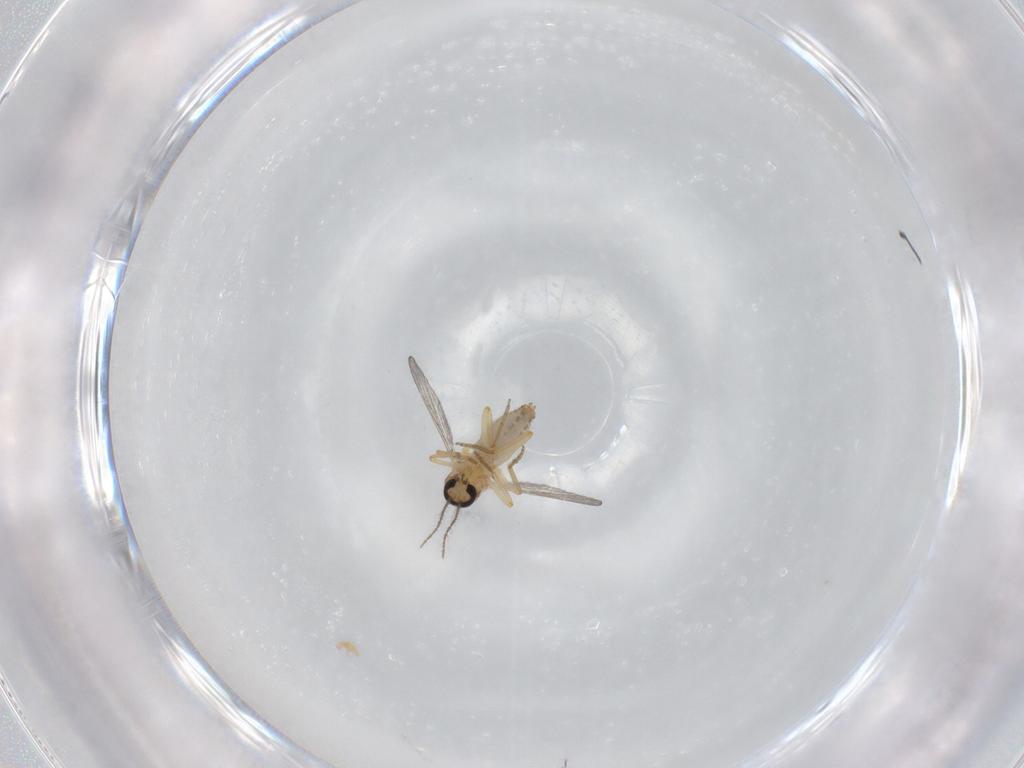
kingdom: Animalia
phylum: Arthropoda
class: Insecta
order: Diptera
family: Ceratopogonidae
